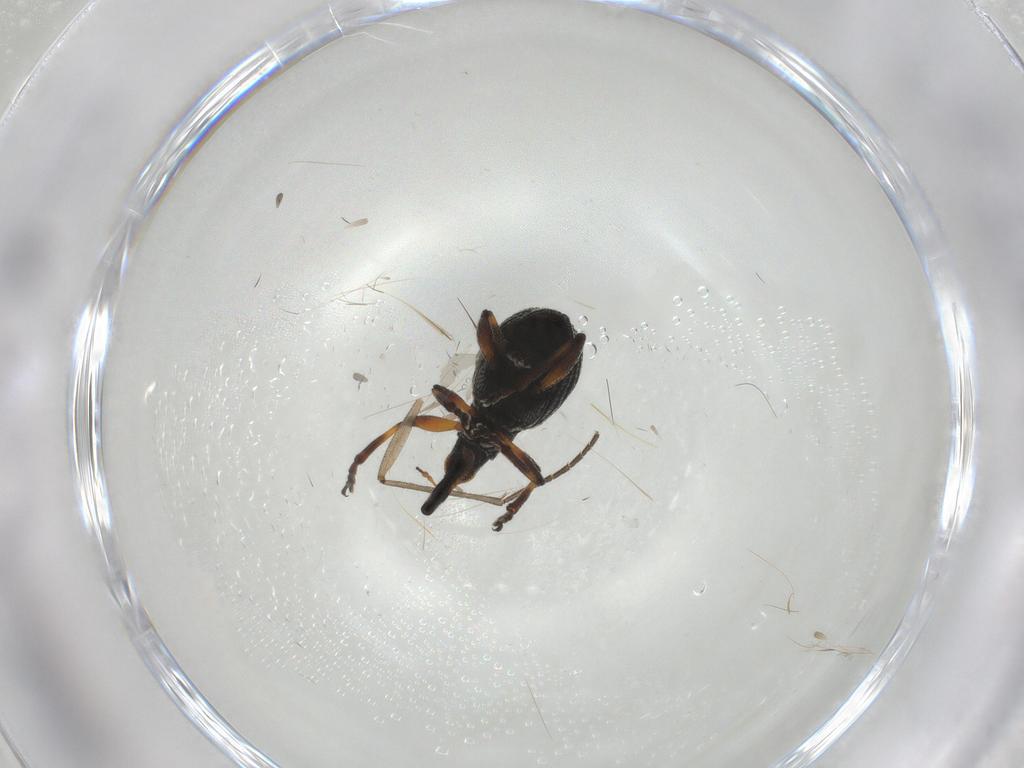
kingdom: Animalia
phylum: Arthropoda
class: Insecta
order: Coleoptera
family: Brentidae
